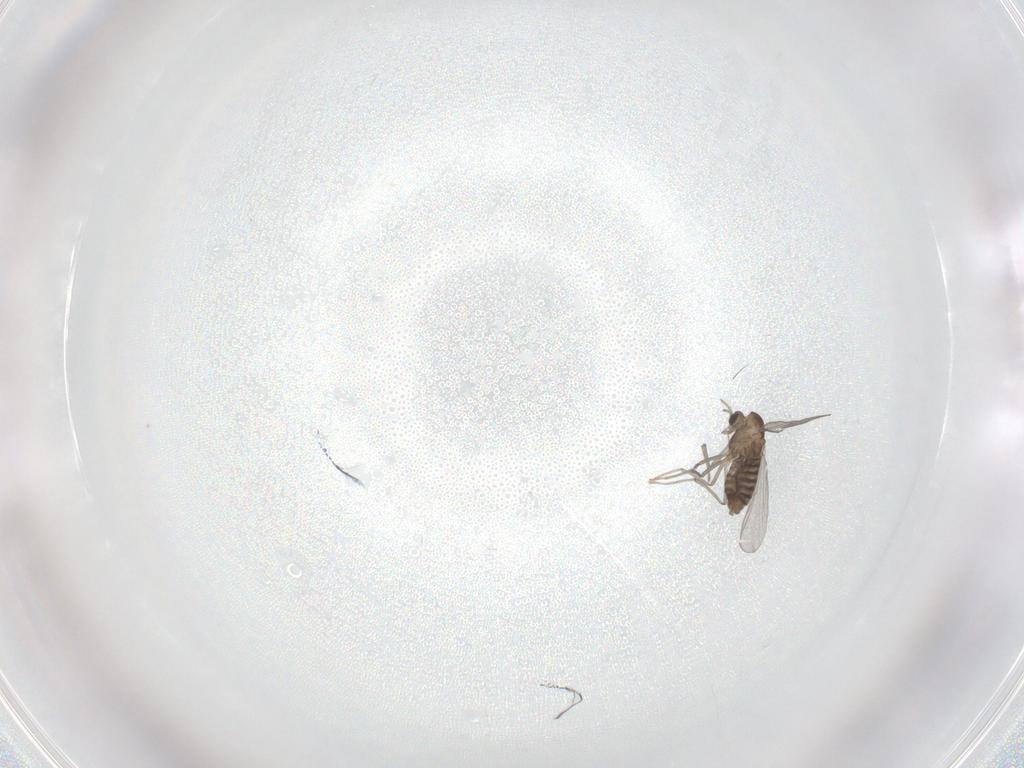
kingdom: Animalia
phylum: Arthropoda
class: Insecta
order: Diptera
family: Chironomidae
